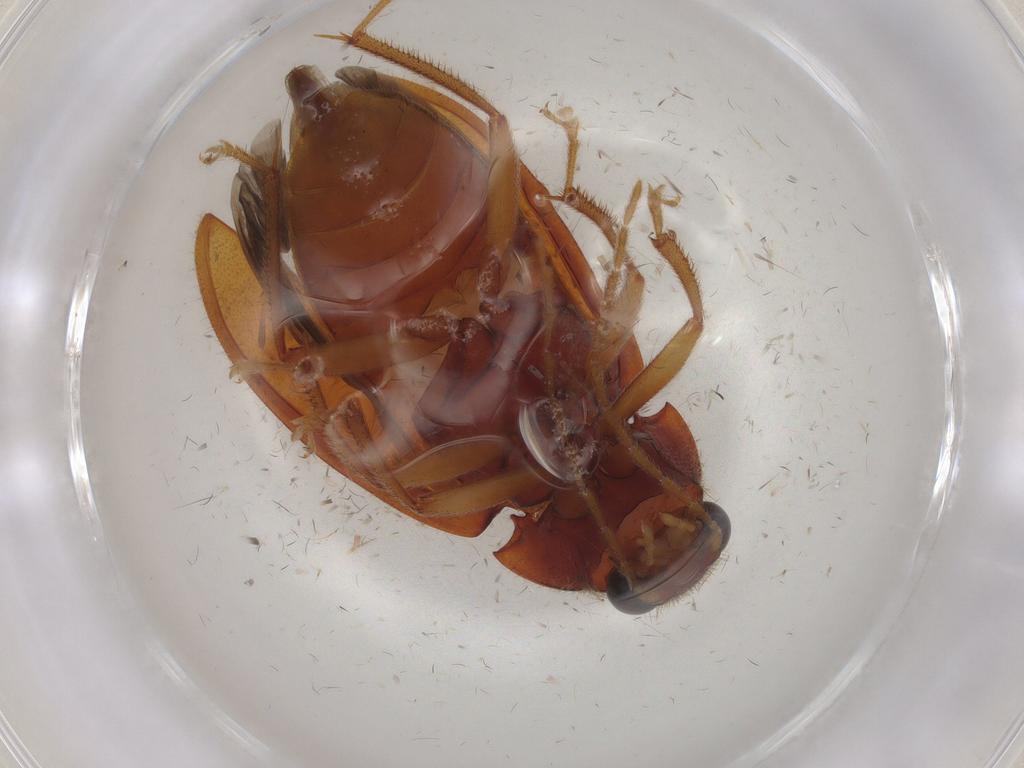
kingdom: Animalia
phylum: Arthropoda
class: Insecta
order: Coleoptera
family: Ptilodactylidae
